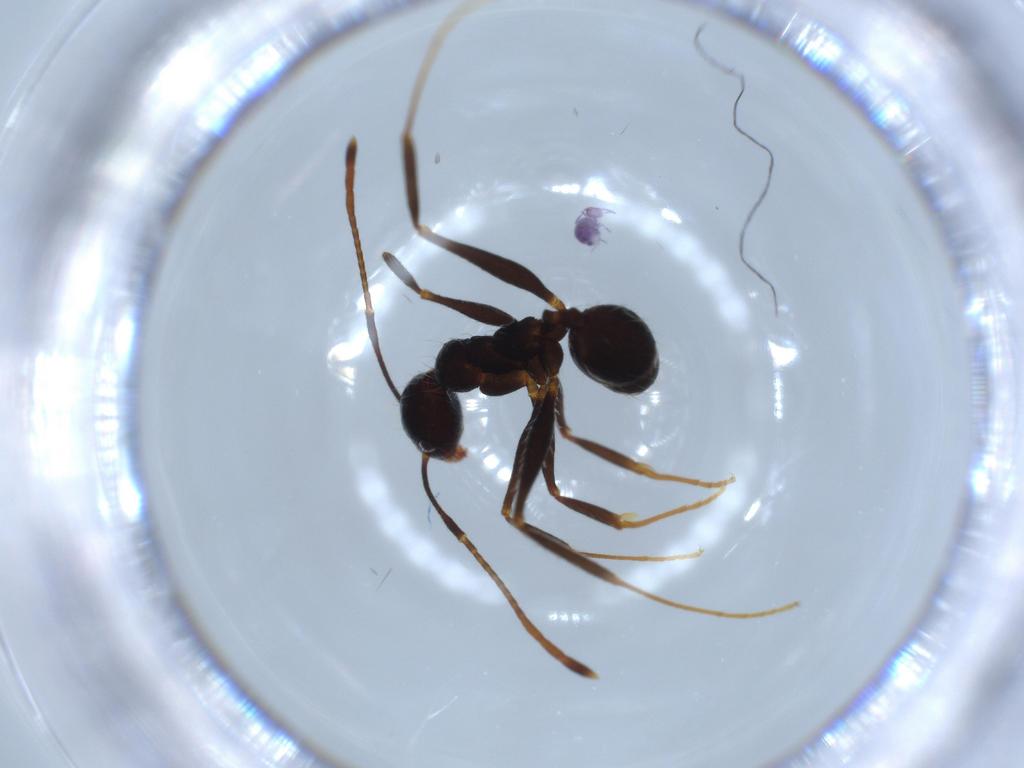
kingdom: Animalia
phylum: Arthropoda
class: Insecta
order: Hymenoptera
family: Formicidae
